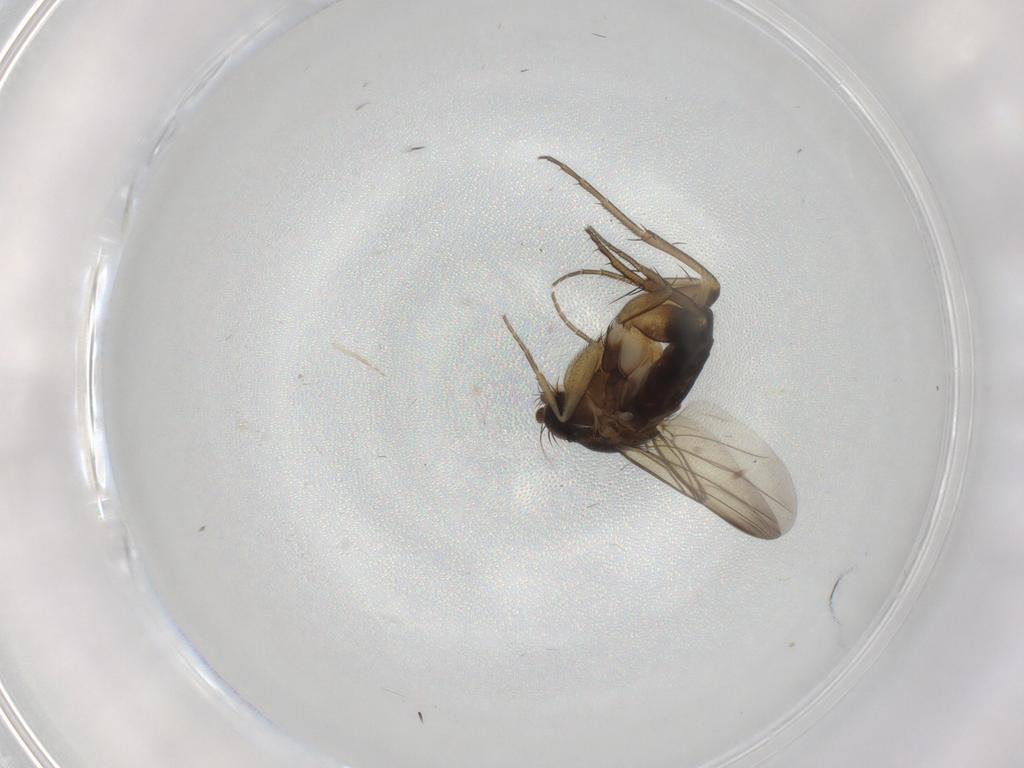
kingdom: Animalia
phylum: Arthropoda
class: Insecta
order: Diptera
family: Phoridae
